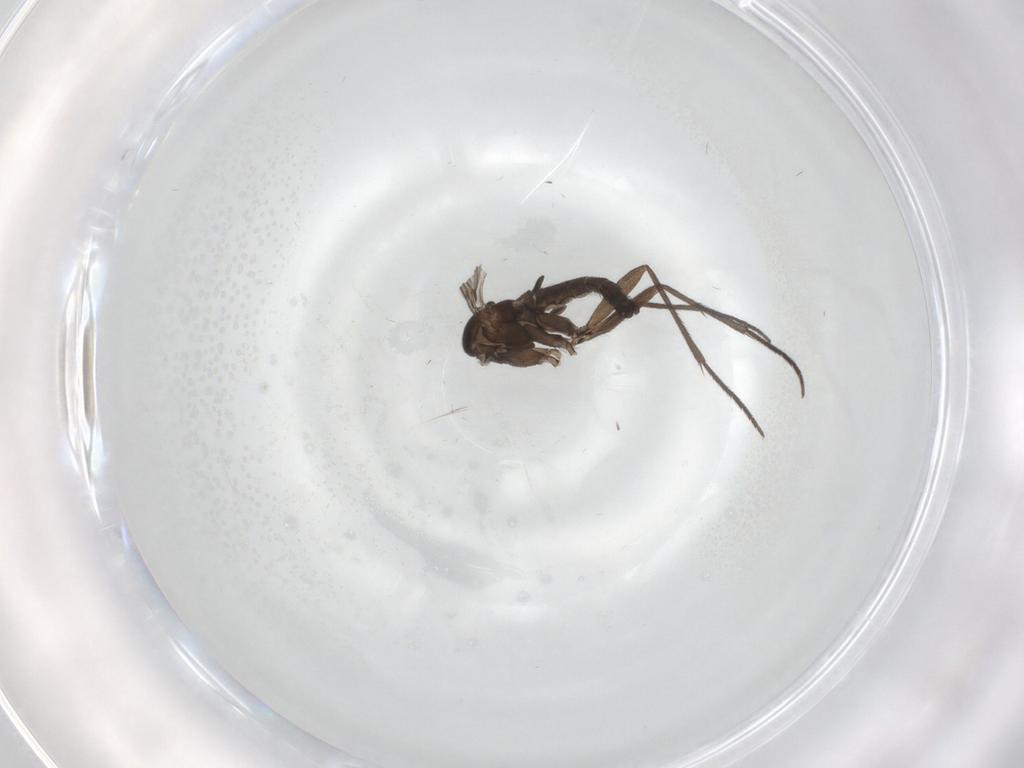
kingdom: Animalia
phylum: Arthropoda
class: Insecta
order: Diptera
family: Sciaridae
